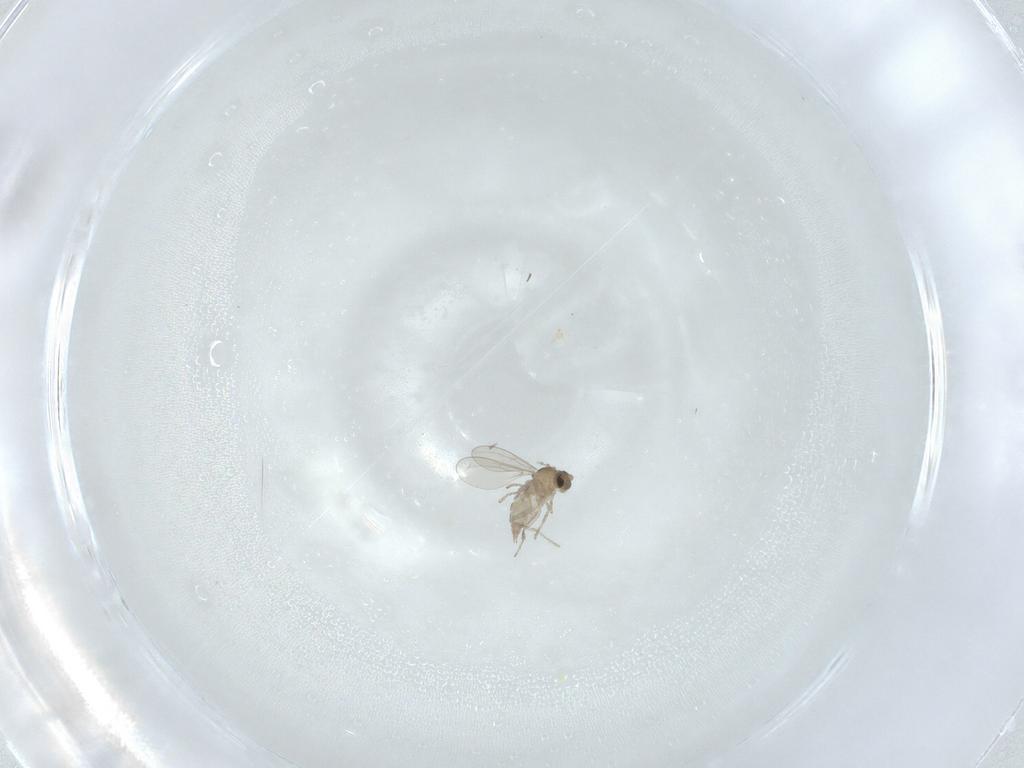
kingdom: Animalia
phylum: Arthropoda
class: Insecta
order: Diptera
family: Cecidomyiidae
